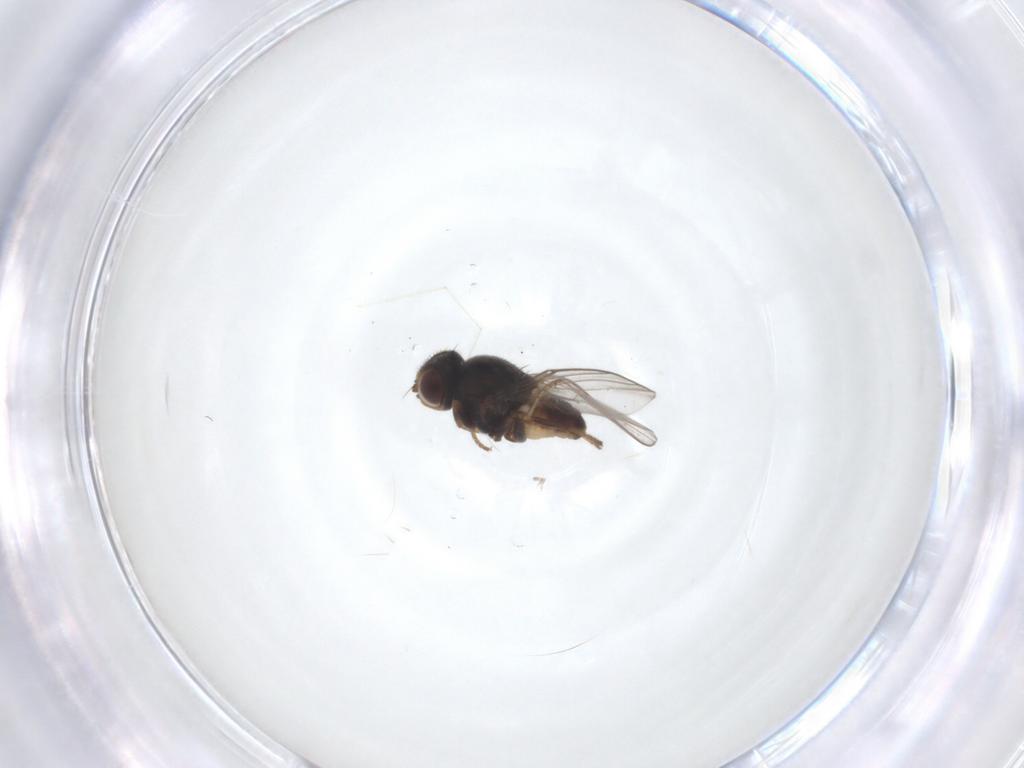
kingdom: Animalia
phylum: Arthropoda
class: Insecta
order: Diptera
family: Chloropidae
